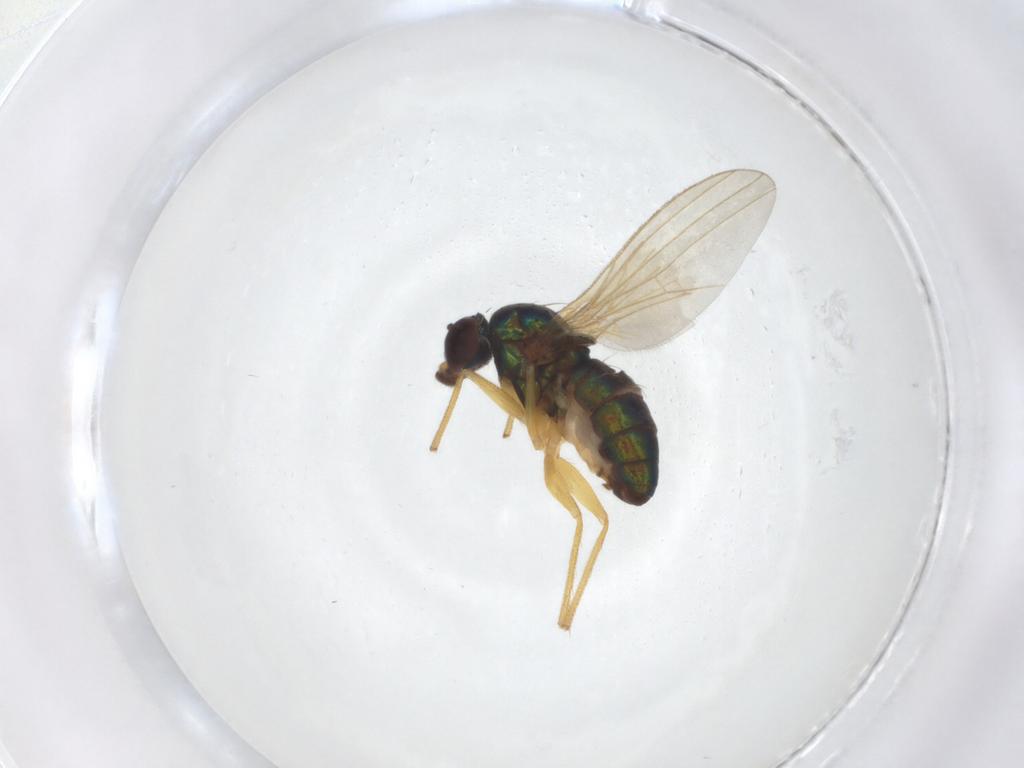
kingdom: Animalia
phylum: Arthropoda
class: Insecta
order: Diptera
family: Dolichopodidae
